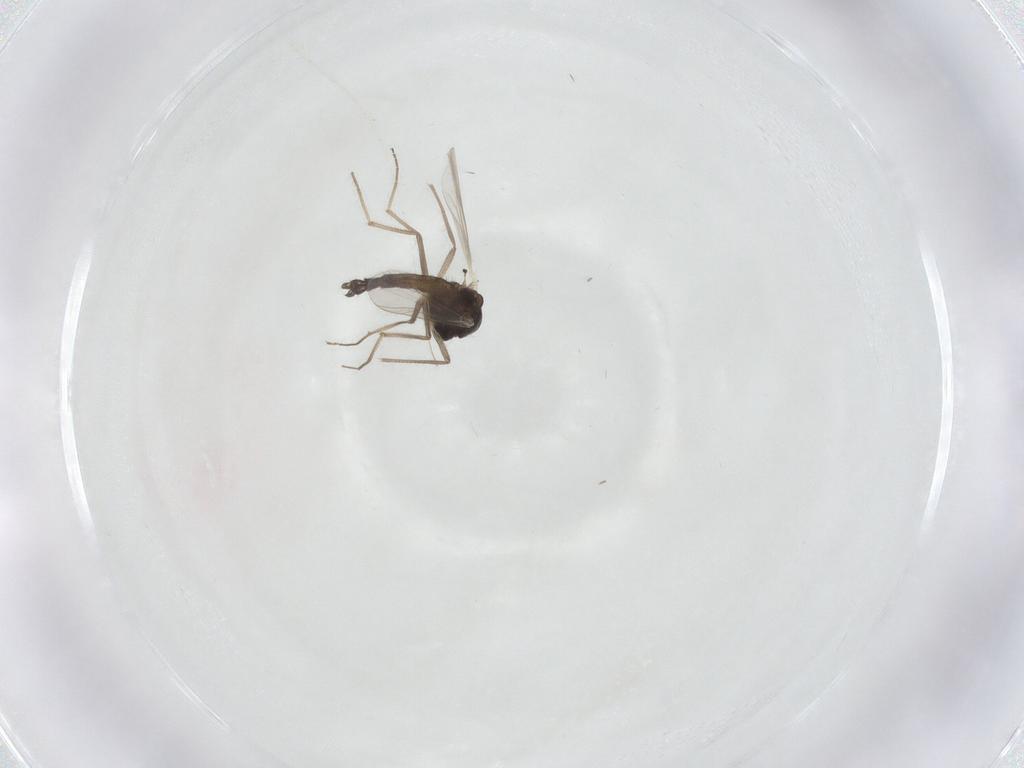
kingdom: Animalia
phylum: Arthropoda
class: Insecta
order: Diptera
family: Chironomidae
